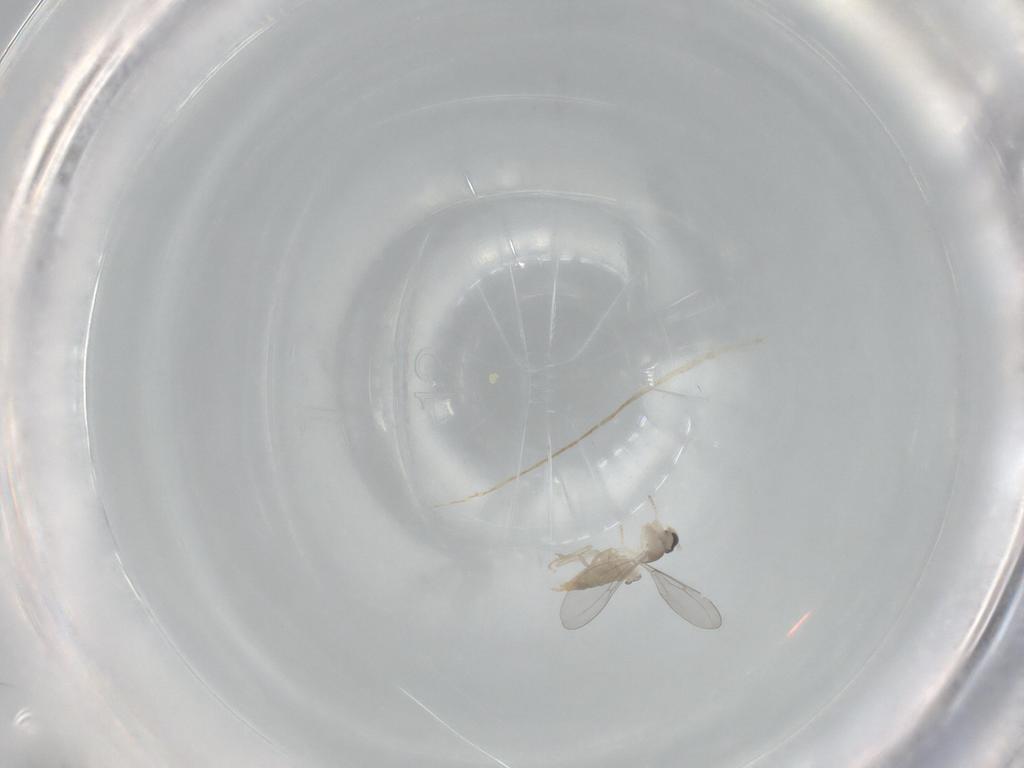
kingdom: Animalia
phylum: Arthropoda
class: Insecta
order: Diptera
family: Cecidomyiidae
